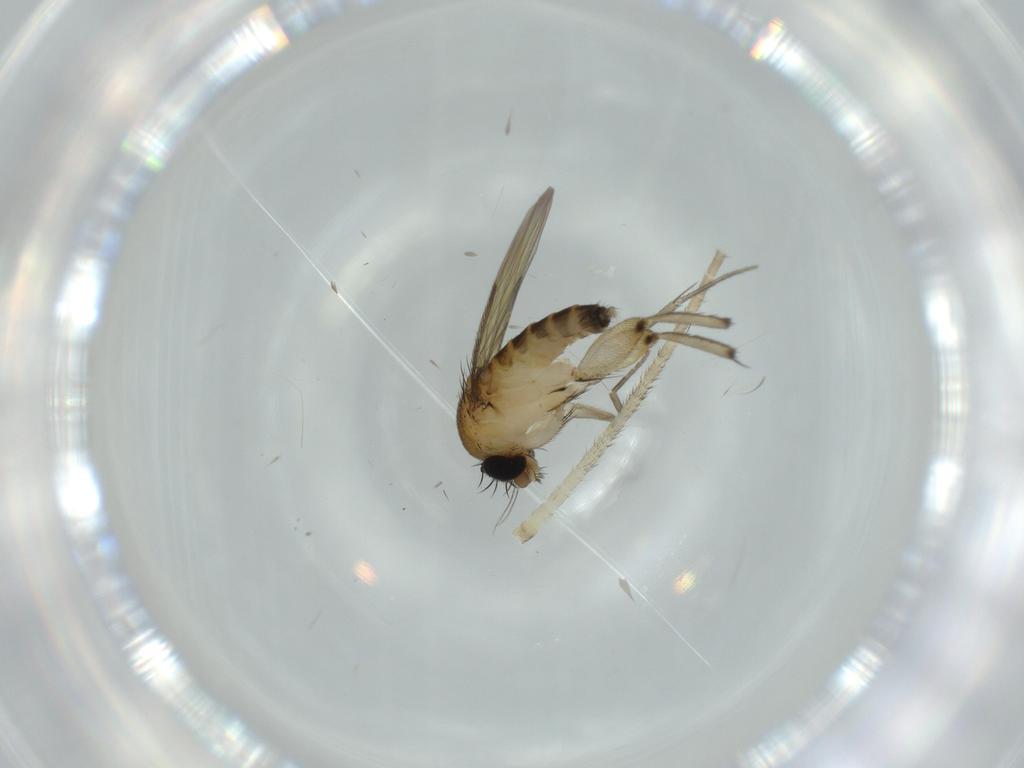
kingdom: Animalia
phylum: Arthropoda
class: Insecta
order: Diptera
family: Phoridae
